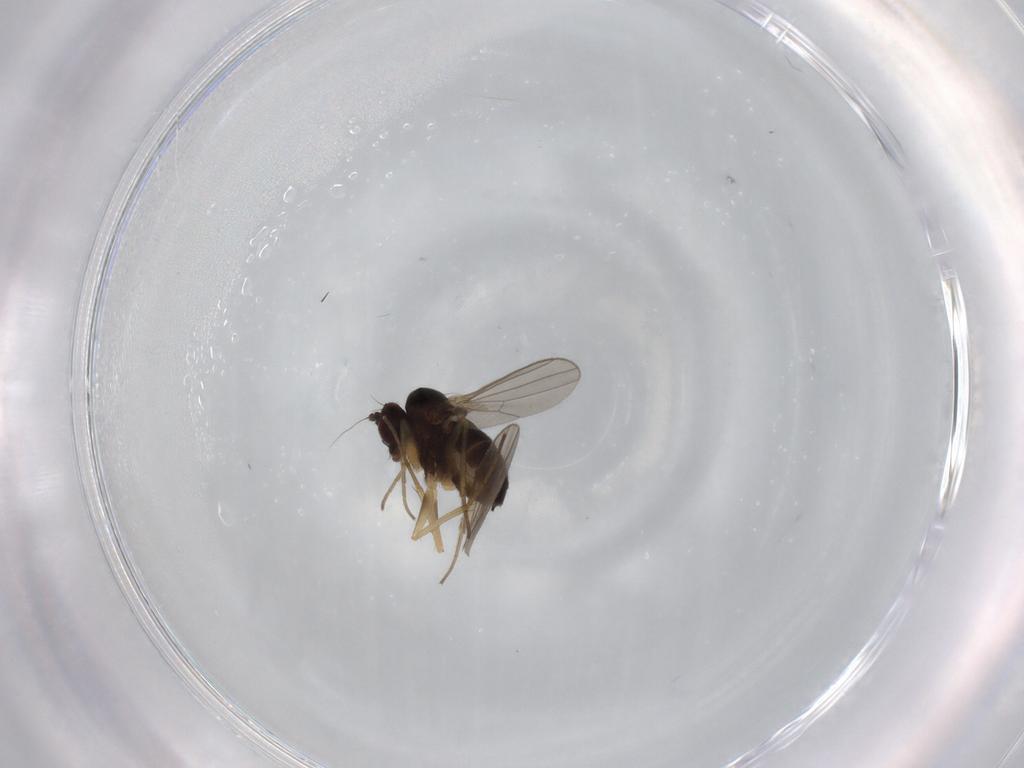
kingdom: Animalia
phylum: Arthropoda
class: Insecta
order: Diptera
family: Dolichopodidae
